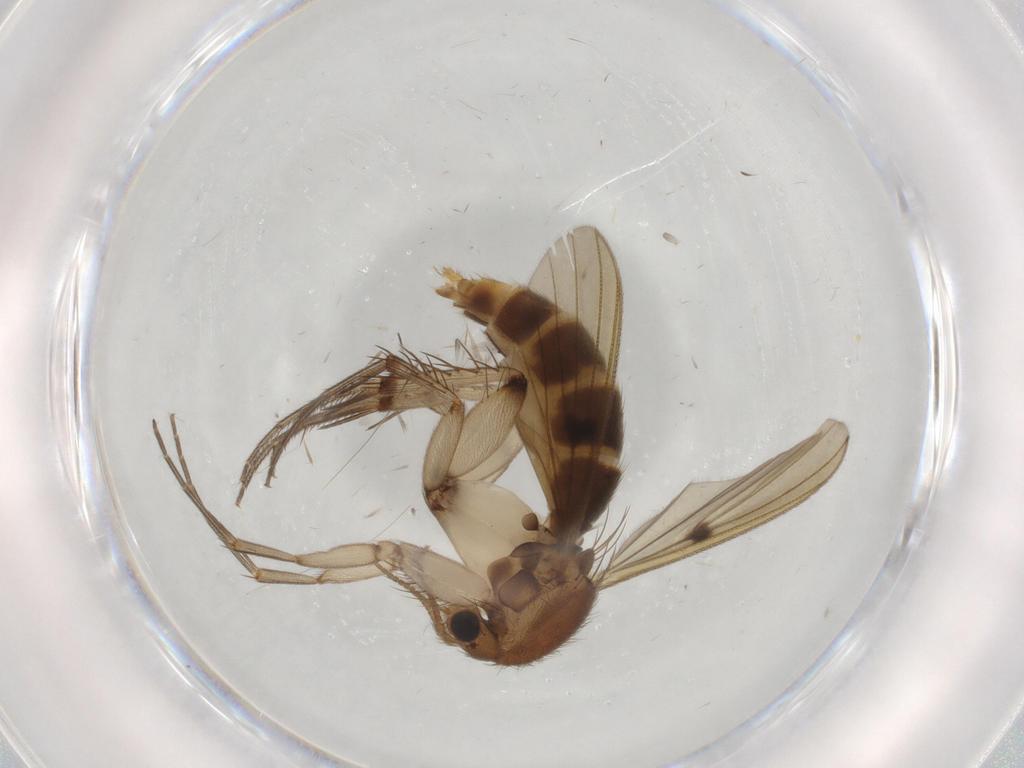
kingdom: Animalia
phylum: Arthropoda
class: Insecta
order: Diptera
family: Mycetophilidae
